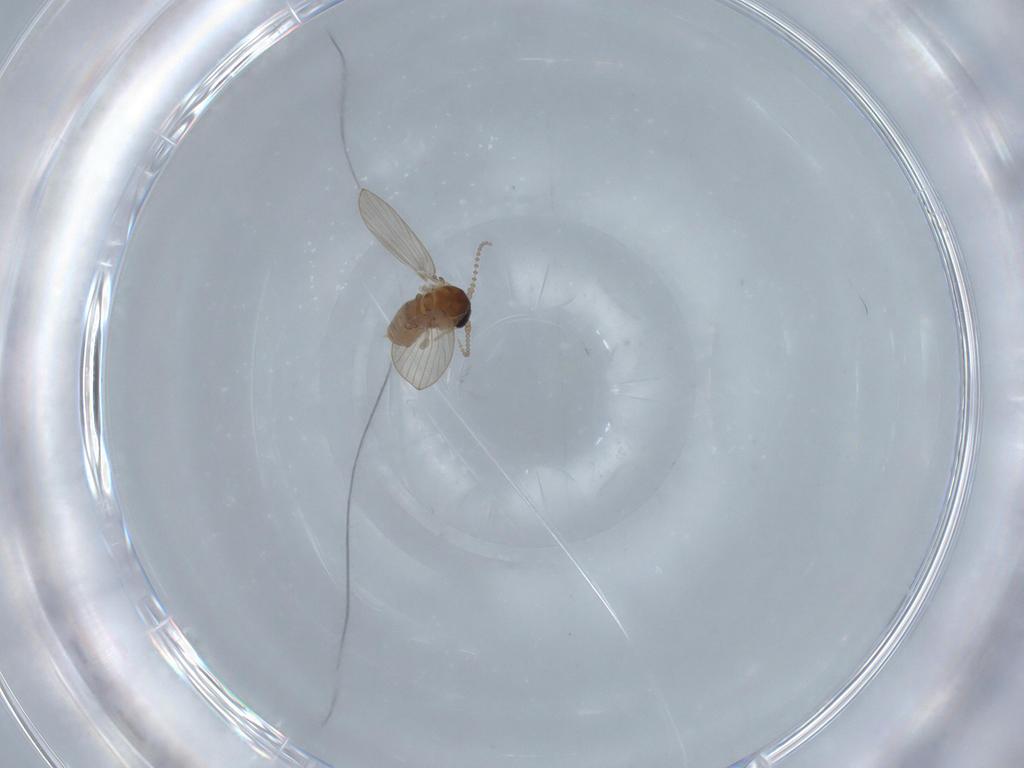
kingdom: Animalia
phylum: Arthropoda
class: Insecta
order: Diptera
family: Psychodidae
